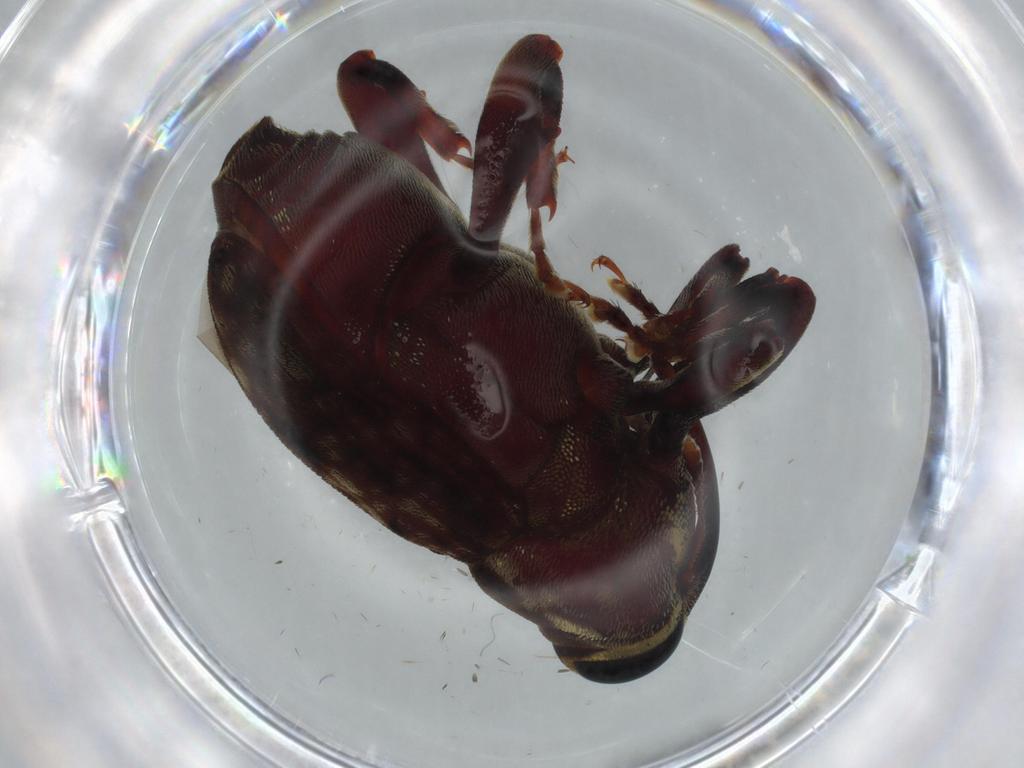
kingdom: Animalia
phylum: Arthropoda
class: Insecta
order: Coleoptera
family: Curculionidae
